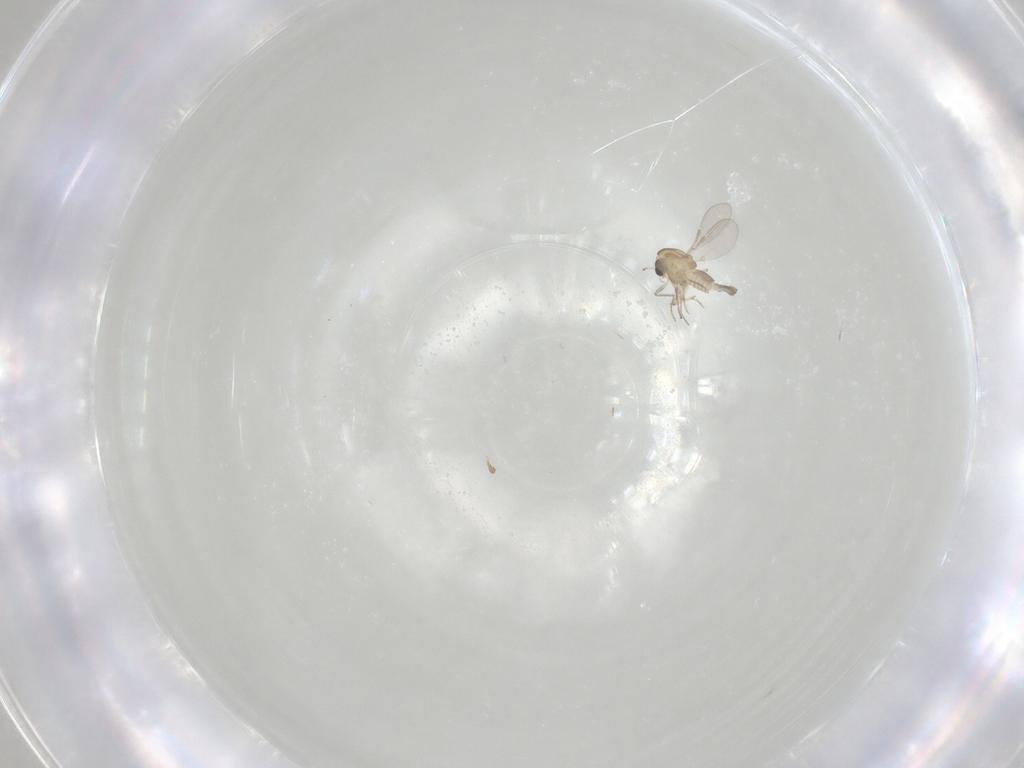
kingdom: Animalia
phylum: Arthropoda
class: Insecta
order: Diptera
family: Chironomidae
